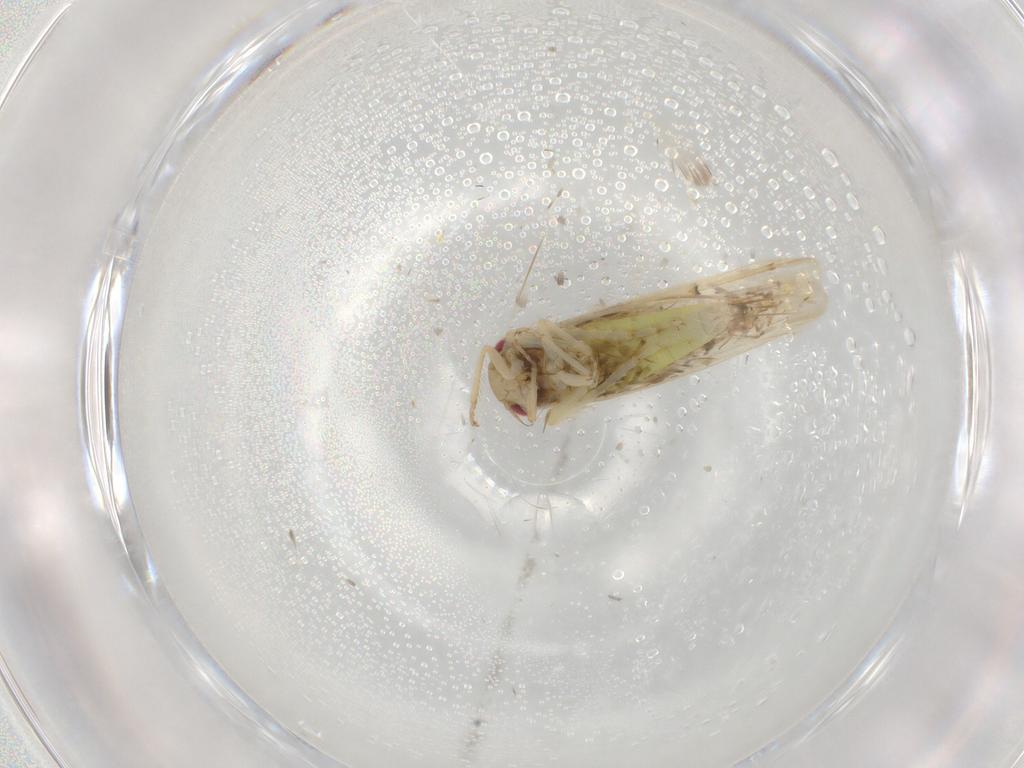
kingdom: Animalia
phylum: Arthropoda
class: Insecta
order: Hemiptera
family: Cicadellidae
